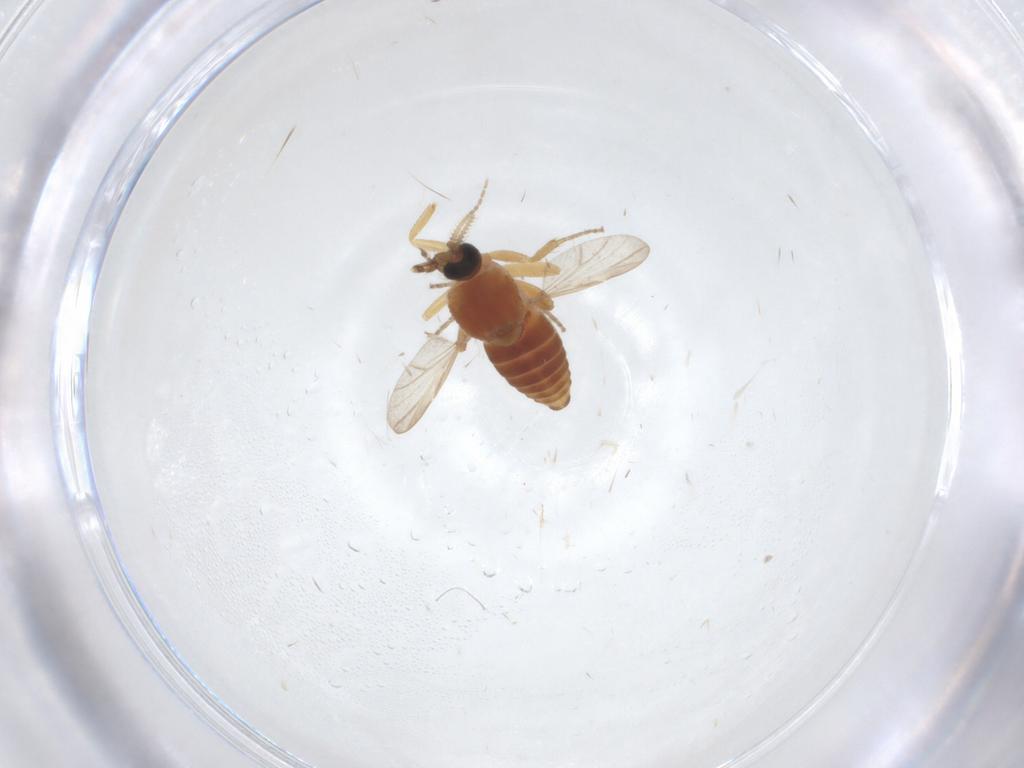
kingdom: Animalia
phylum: Arthropoda
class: Insecta
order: Diptera
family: Ceratopogonidae
